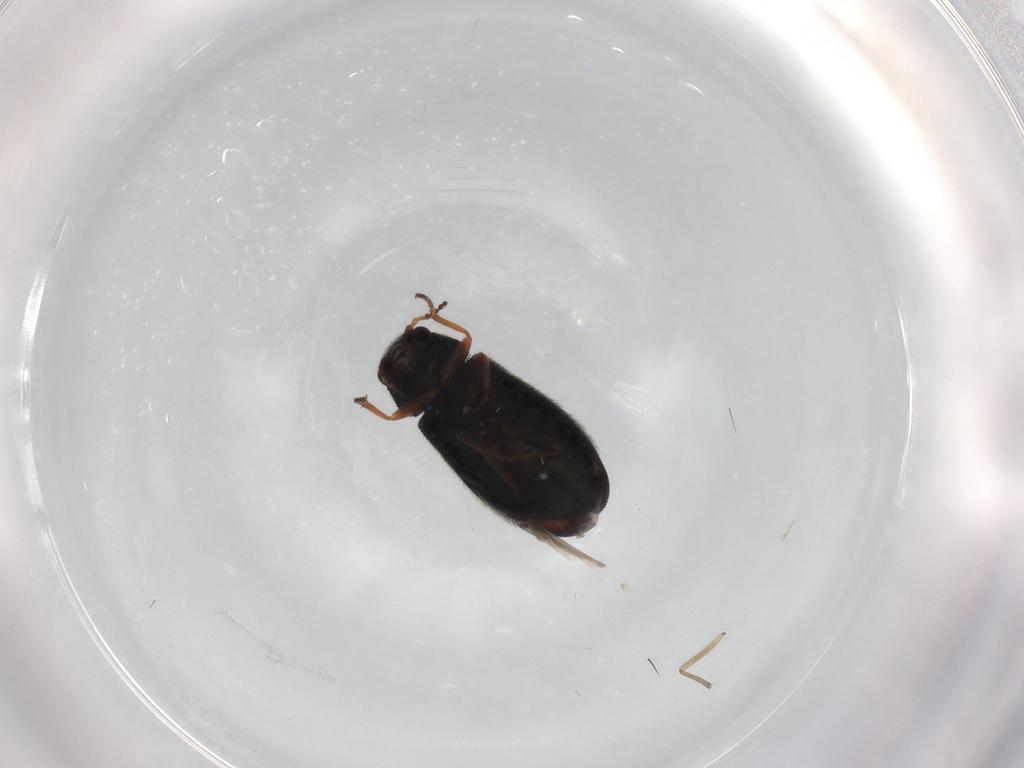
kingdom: Animalia
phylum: Arthropoda
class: Insecta
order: Coleoptera
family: Melyridae
